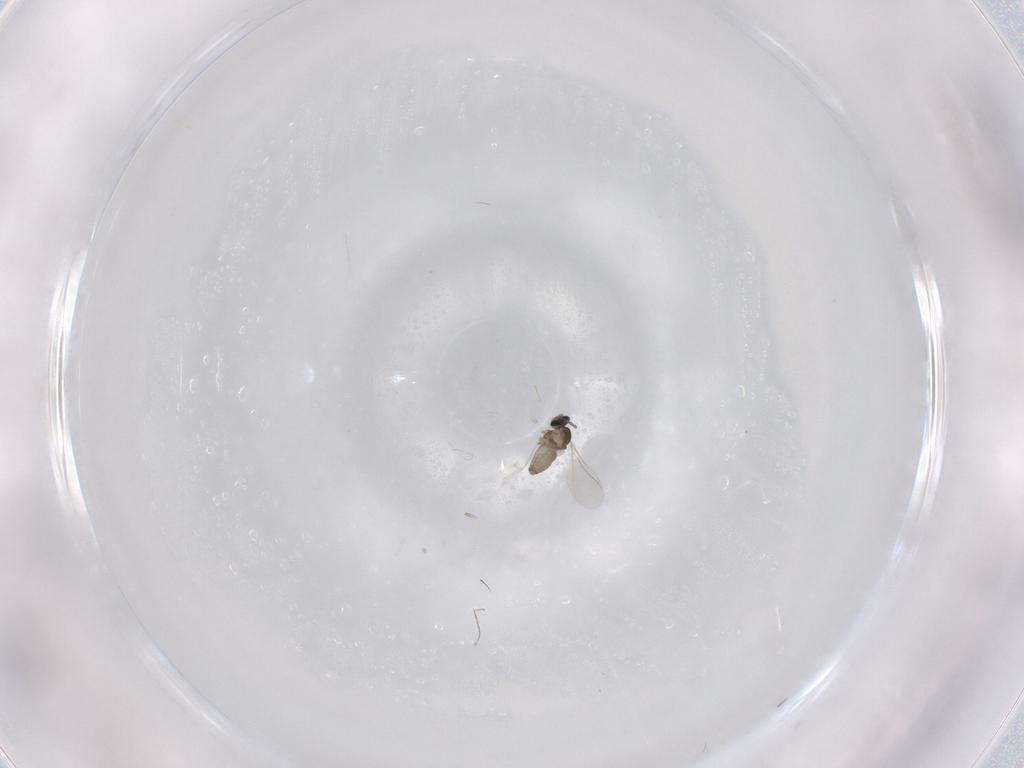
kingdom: Animalia
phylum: Arthropoda
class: Insecta
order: Diptera
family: Cecidomyiidae
